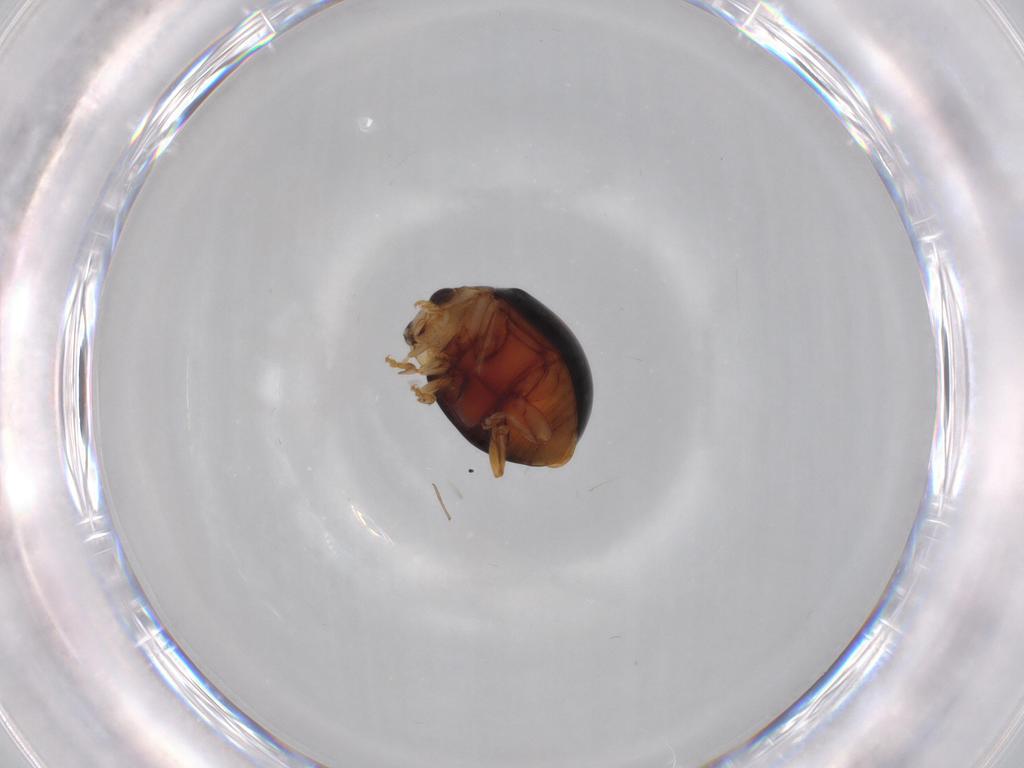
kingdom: Animalia
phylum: Arthropoda
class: Insecta
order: Coleoptera
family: Coccinellidae
